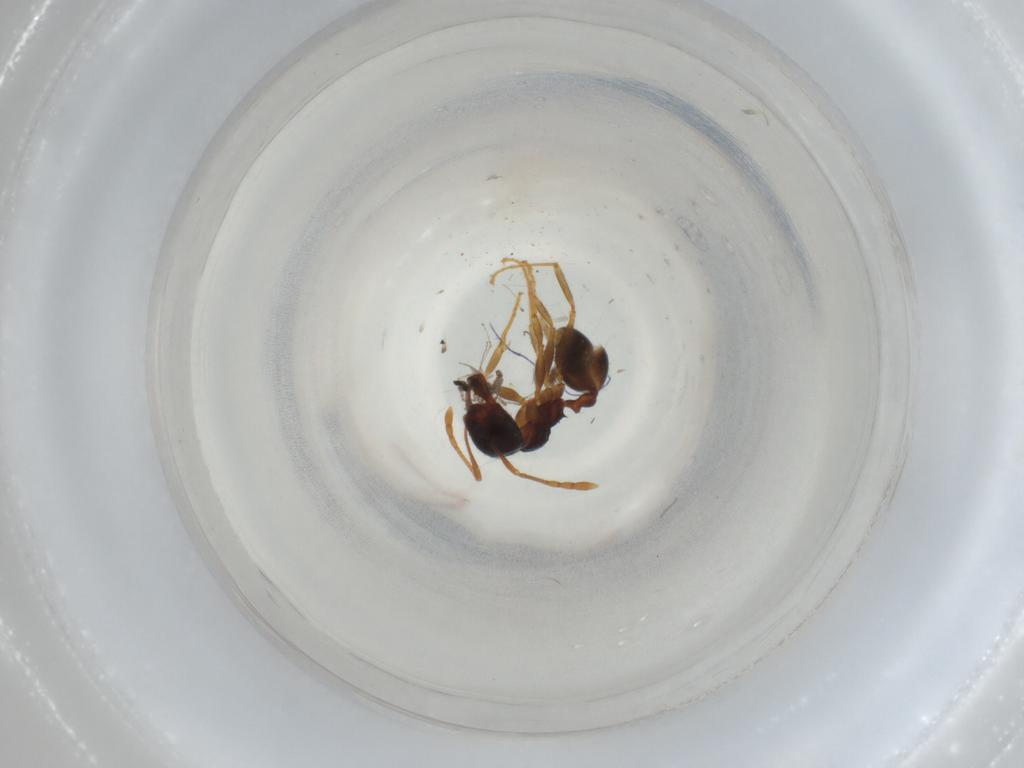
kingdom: Animalia
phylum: Arthropoda
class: Insecta
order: Hymenoptera
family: Formicidae
